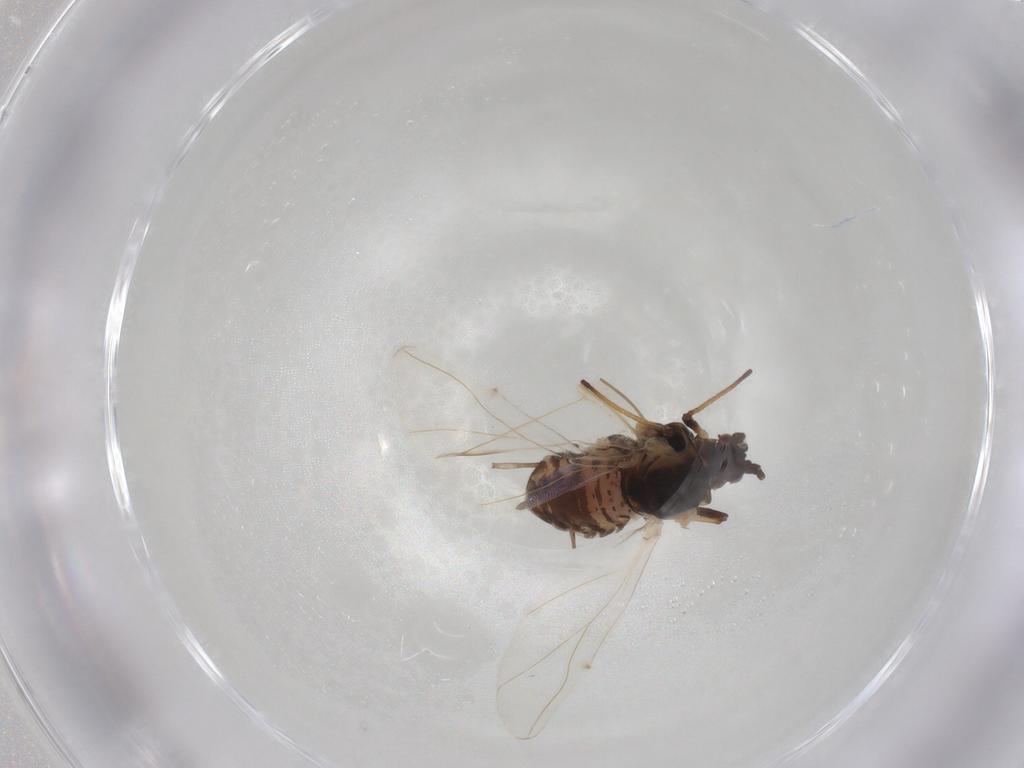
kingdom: Animalia
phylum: Arthropoda
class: Insecta
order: Hemiptera
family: Aphididae
